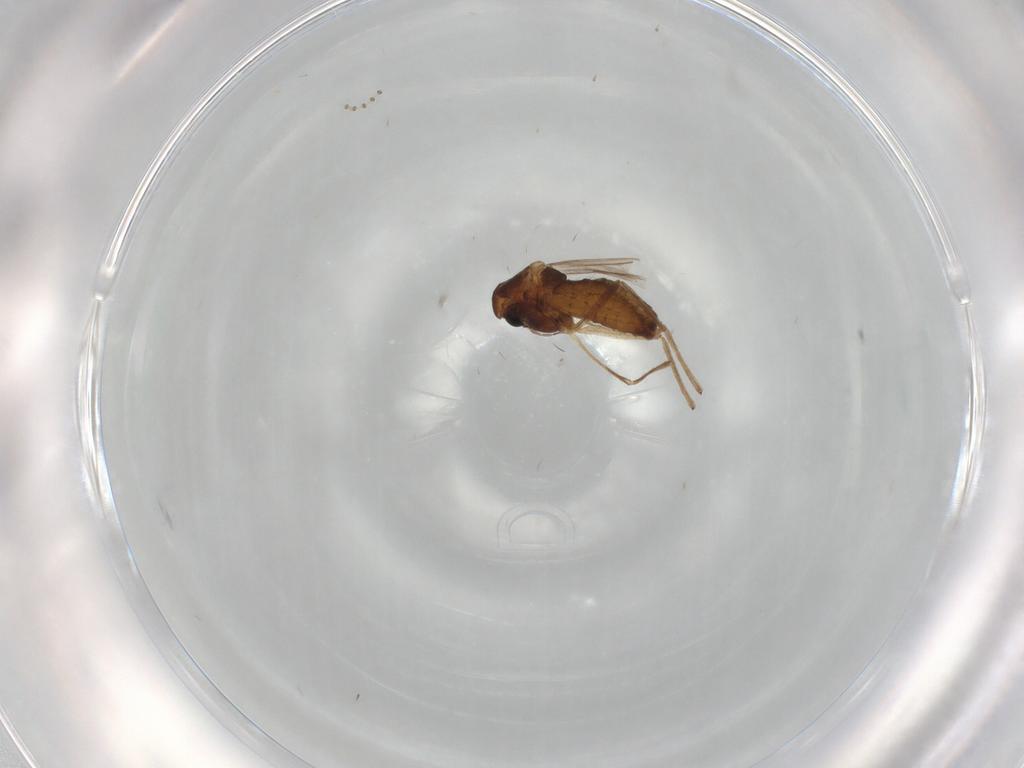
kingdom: Animalia
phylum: Arthropoda
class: Insecta
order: Diptera
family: Chironomidae
